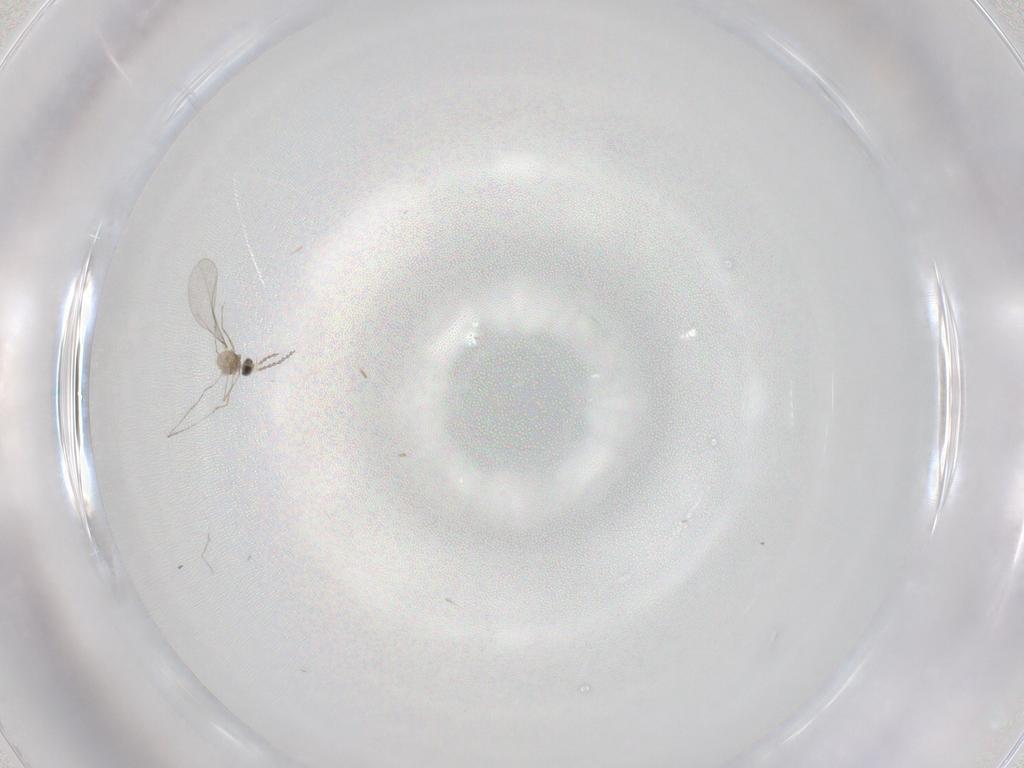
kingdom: Animalia
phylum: Arthropoda
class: Insecta
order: Diptera
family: Cecidomyiidae
